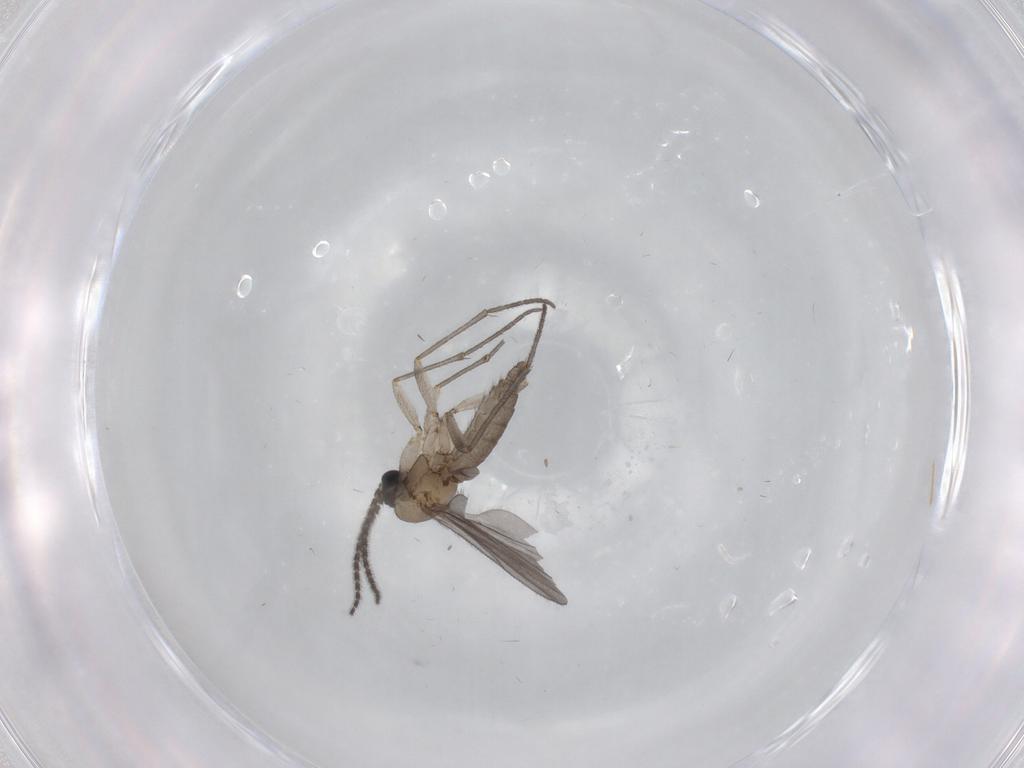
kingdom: Animalia
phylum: Arthropoda
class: Insecta
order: Diptera
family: Sciaridae
